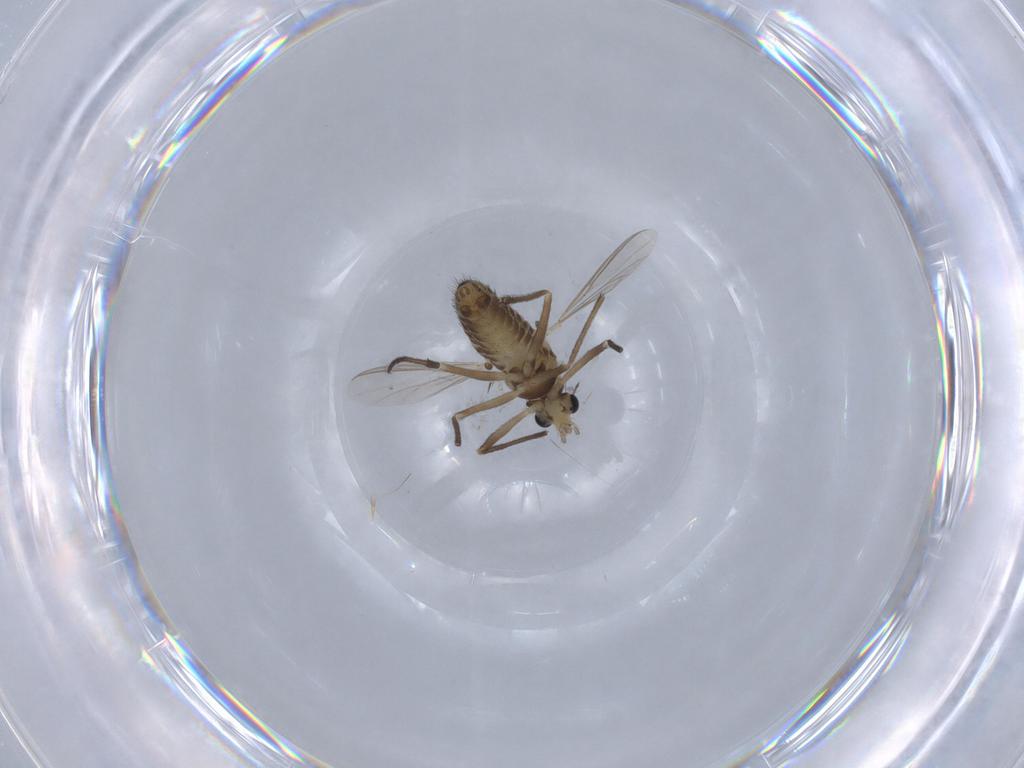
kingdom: Animalia
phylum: Arthropoda
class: Insecta
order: Diptera
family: Chironomidae
